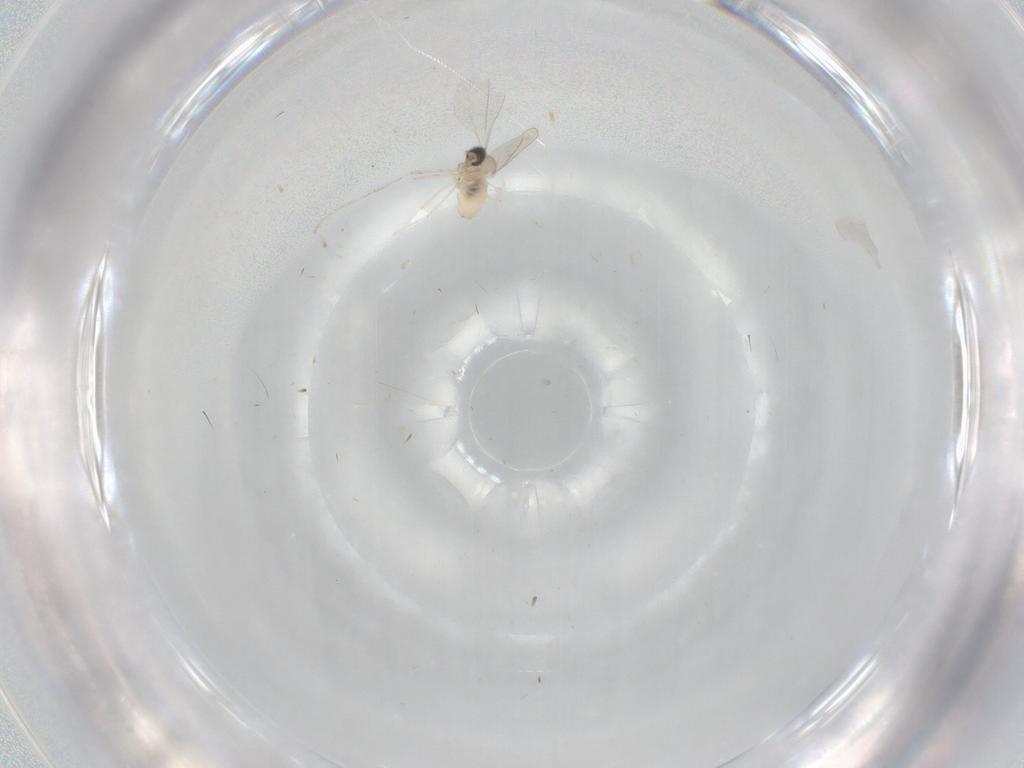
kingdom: Animalia
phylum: Arthropoda
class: Insecta
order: Diptera
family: Cecidomyiidae
